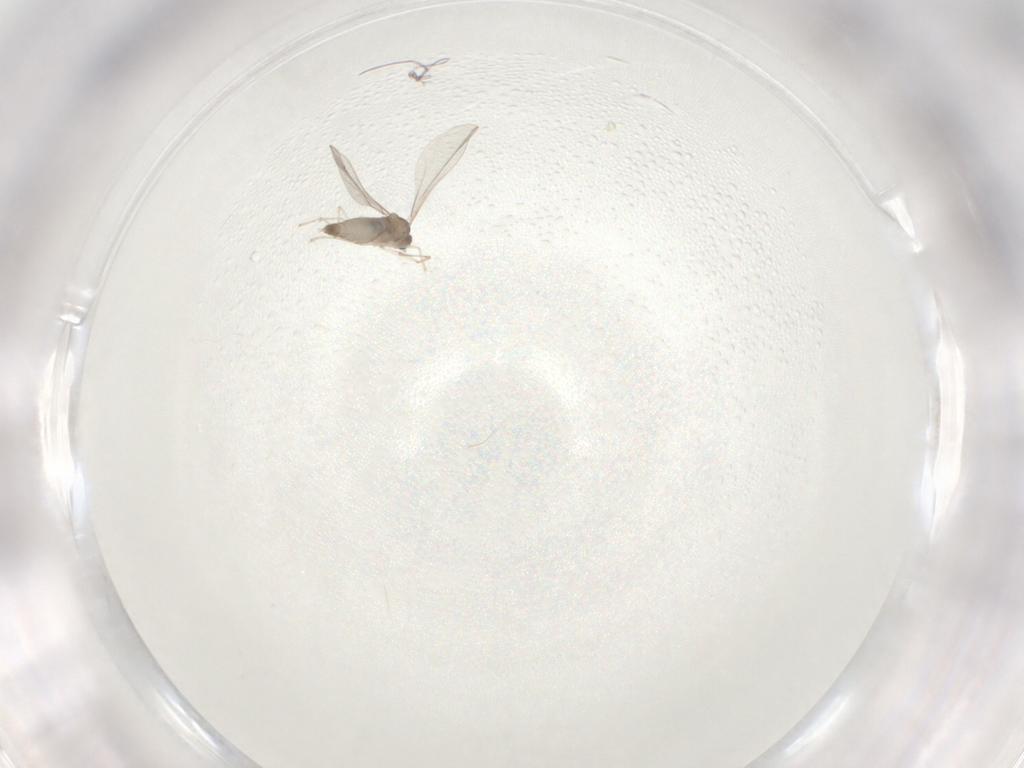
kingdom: Animalia
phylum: Arthropoda
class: Insecta
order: Diptera
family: Cecidomyiidae
